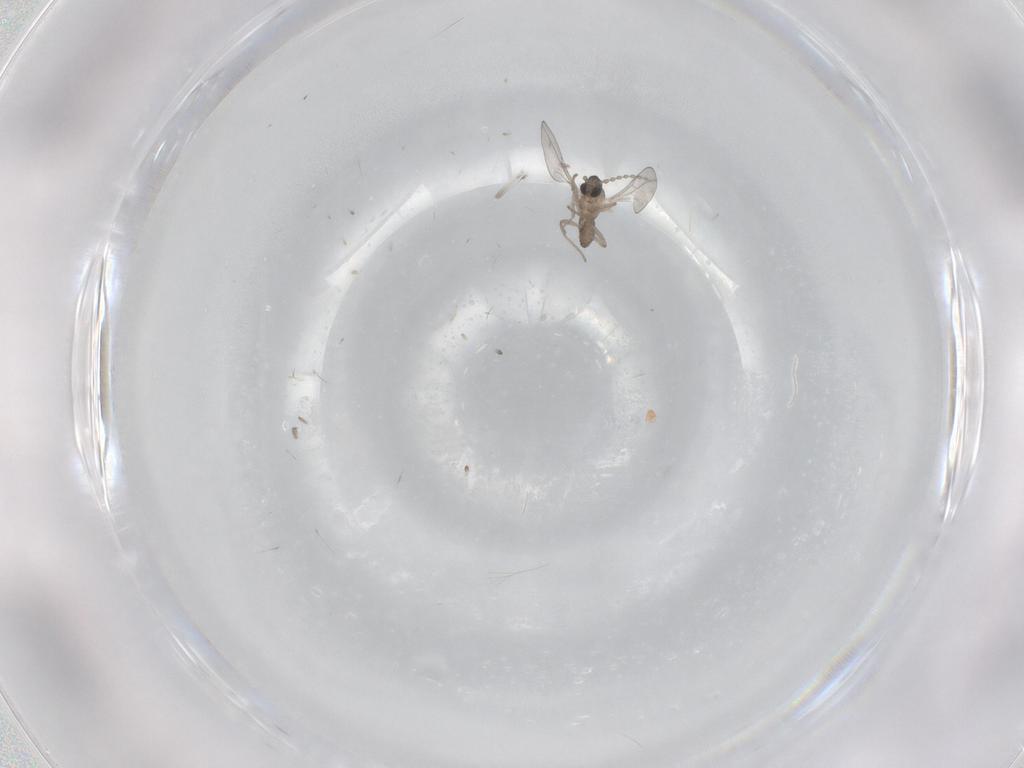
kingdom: Animalia
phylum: Arthropoda
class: Insecta
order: Diptera
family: Cecidomyiidae
